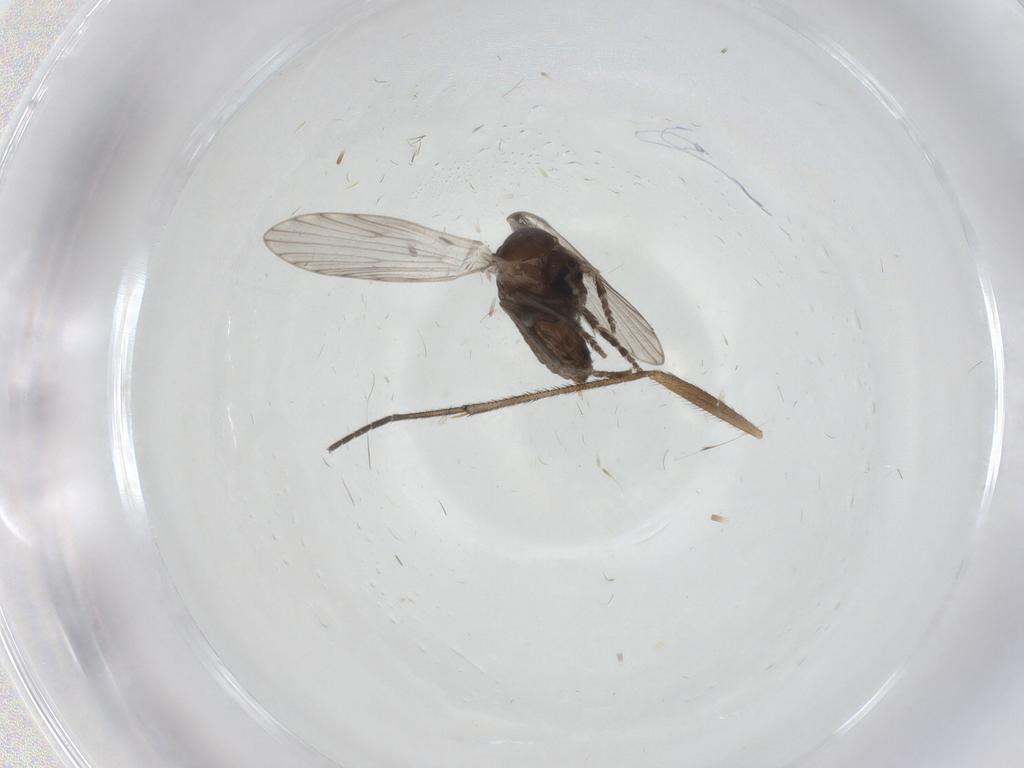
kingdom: Animalia
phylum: Arthropoda
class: Insecta
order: Diptera
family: Psychodidae
